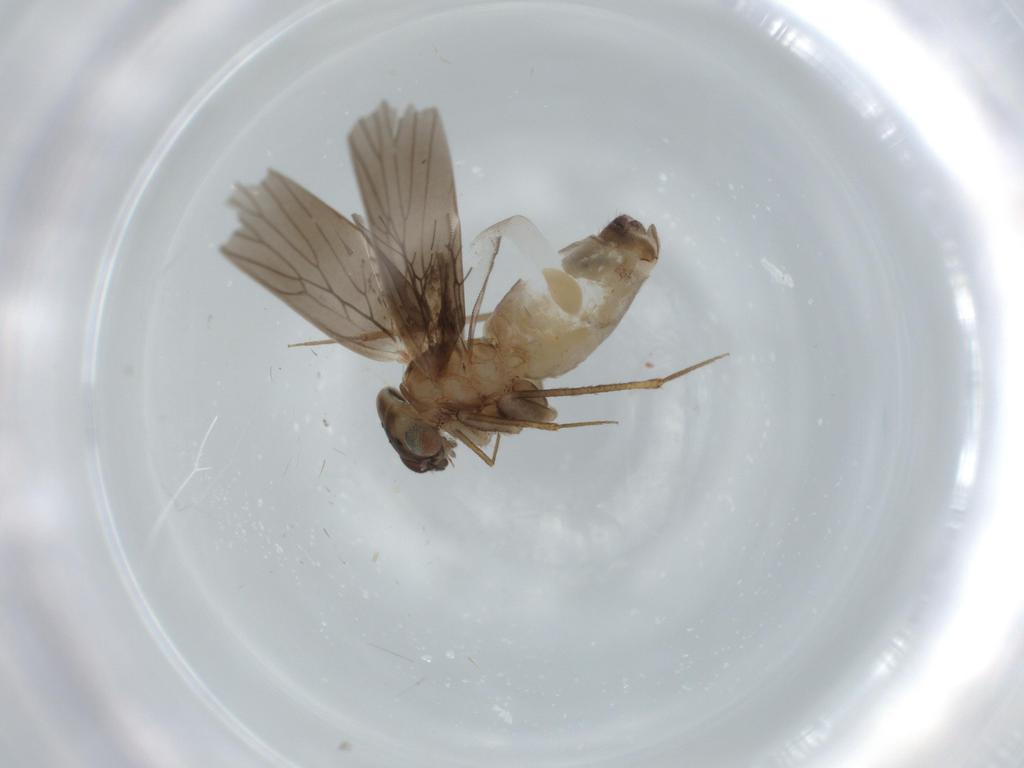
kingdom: Animalia
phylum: Arthropoda
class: Insecta
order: Psocodea
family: Lepidopsocidae
